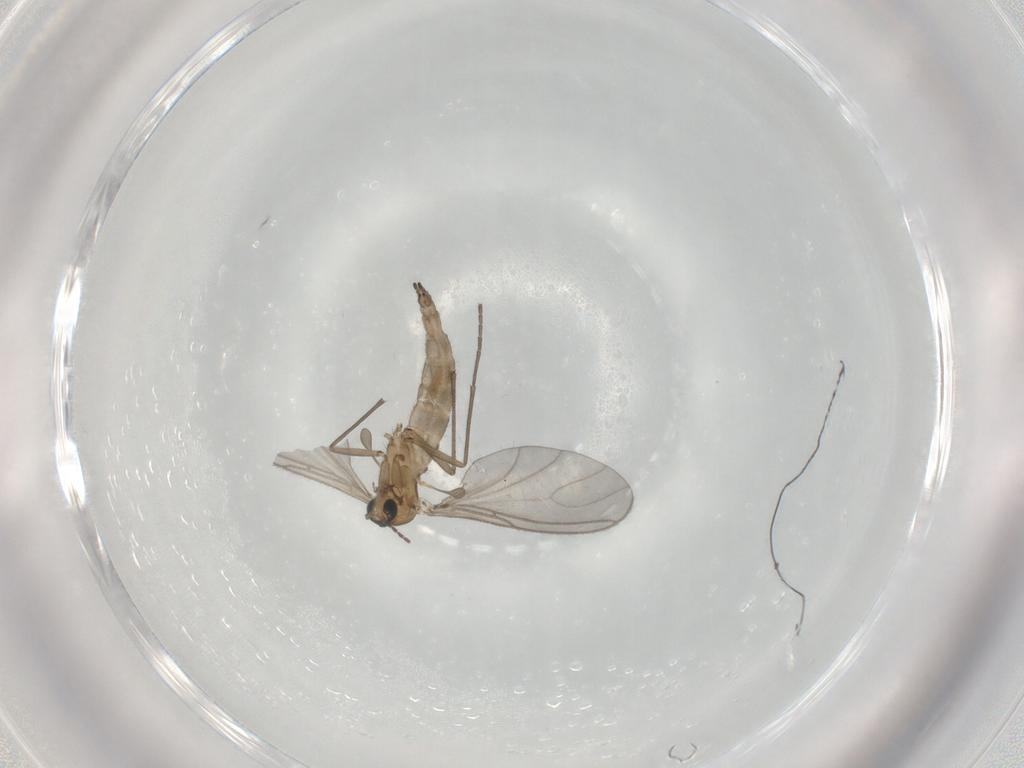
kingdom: Animalia
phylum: Arthropoda
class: Insecta
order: Diptera
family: Sciaridae
